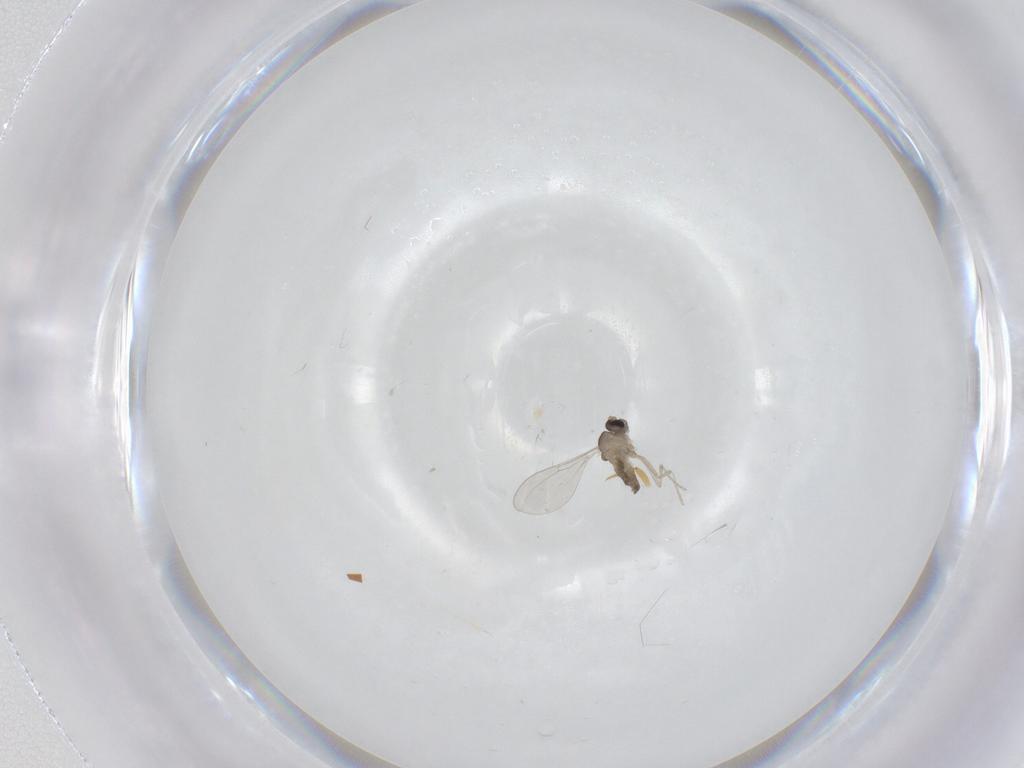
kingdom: Animalia
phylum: Arthropoda
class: Insecta
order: Diptera
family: Cecidomyiidae
